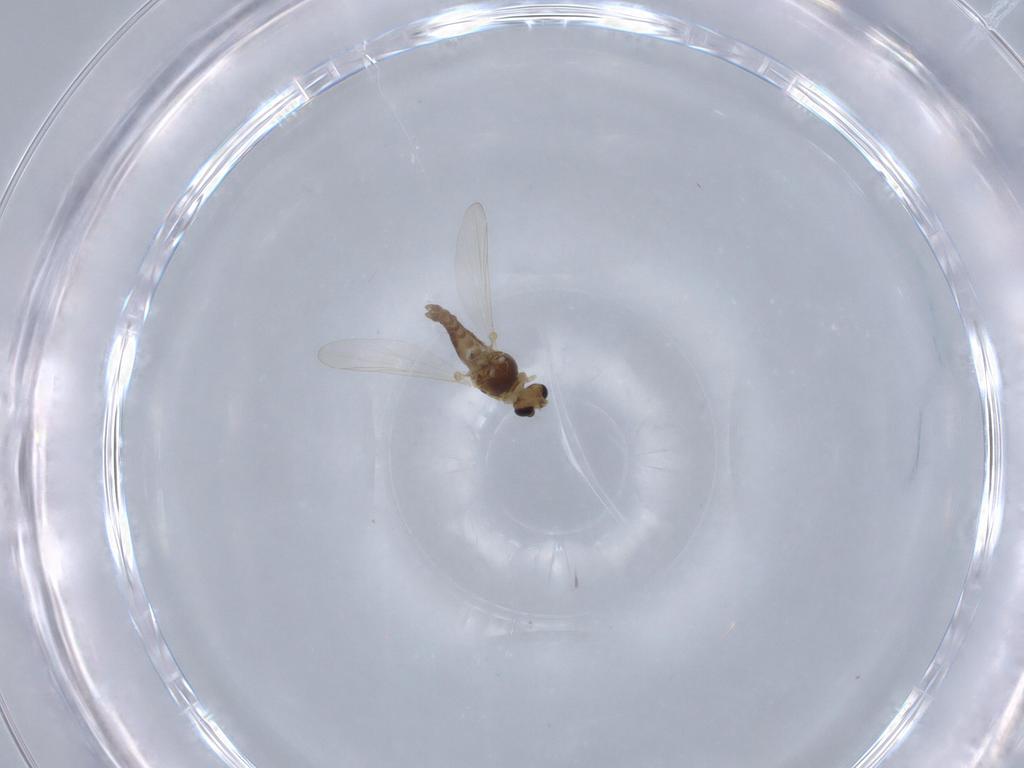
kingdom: Animalia
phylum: Arthropoda
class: Insecta
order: Diptera
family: Chironomidae
